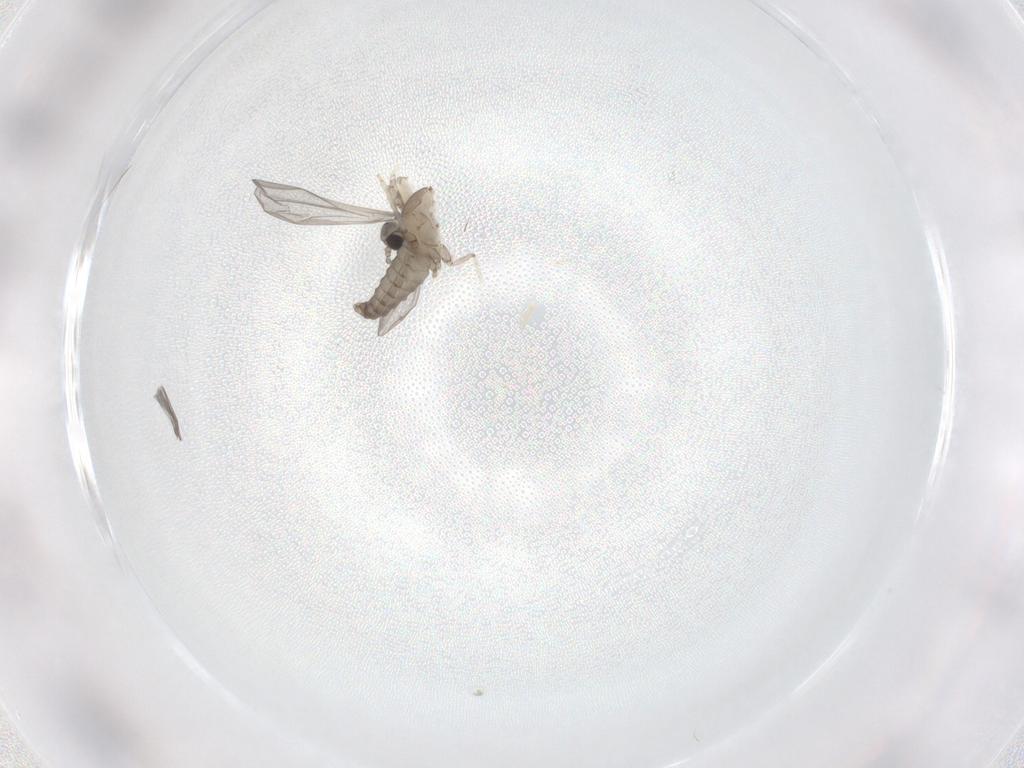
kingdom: Animalia
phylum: Arthropoda
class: Insecta
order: Diptera
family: Cecidomyiidae
